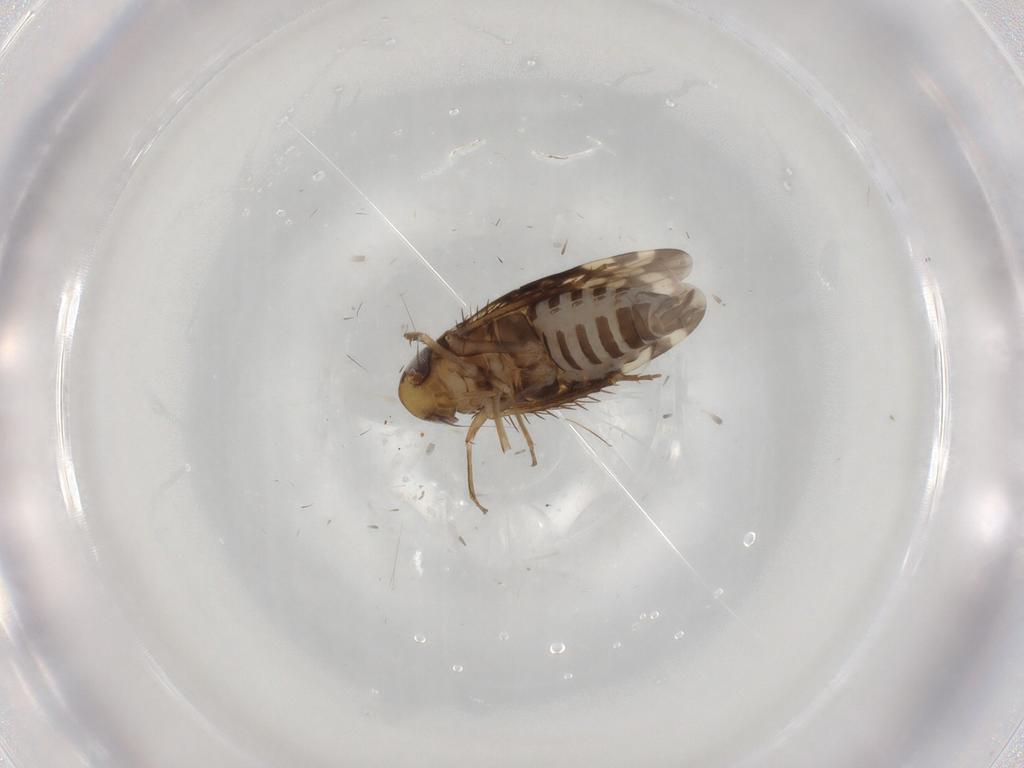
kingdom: Animalia
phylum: Arthropoda
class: Insecta
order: Hemiptera
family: Cicadellidae
